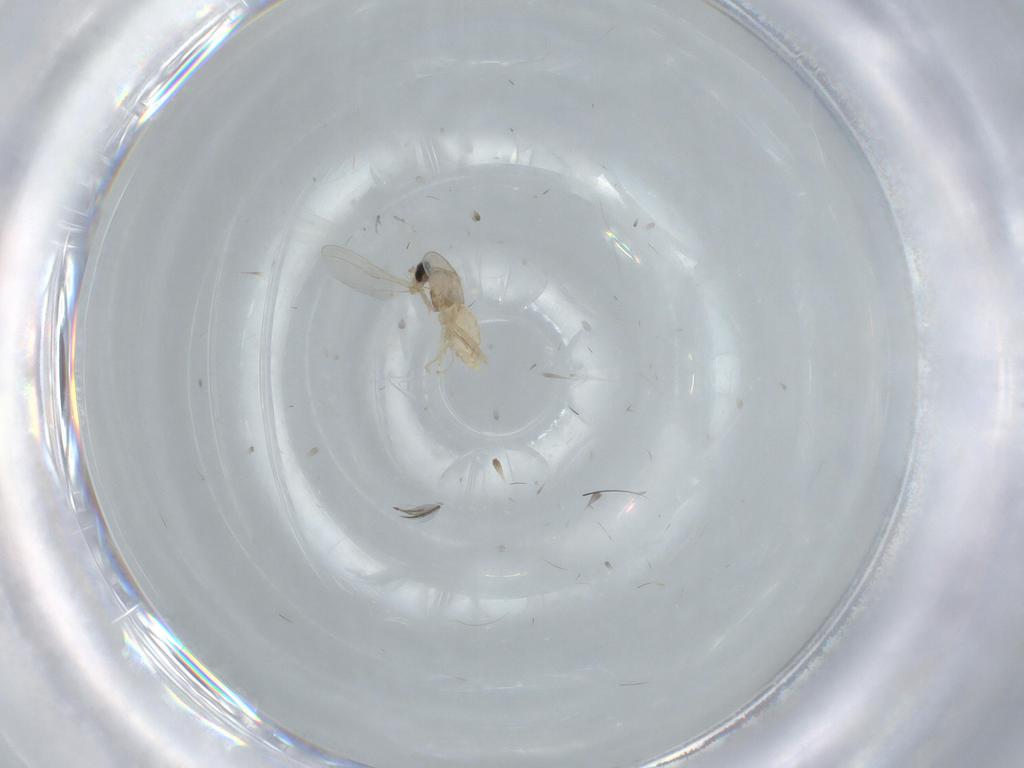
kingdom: Animalia
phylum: Arthropoda
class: Insecta
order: Diptera
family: Cecidomyiidae
